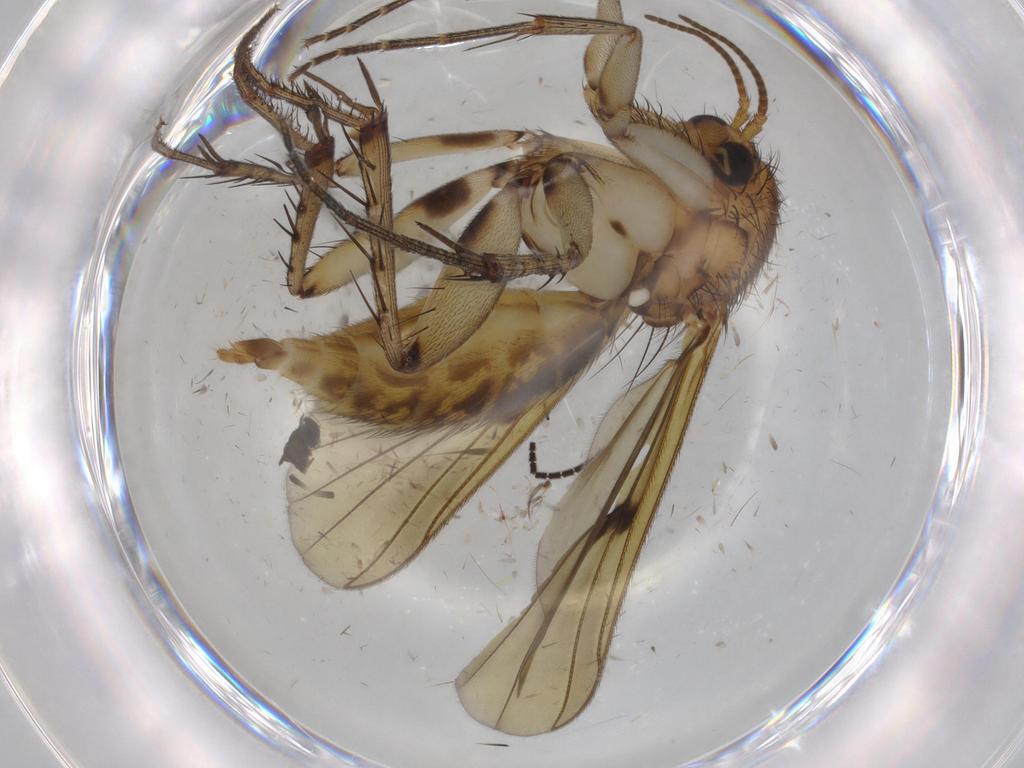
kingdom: Animalia
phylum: Arthropoda
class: Insecta
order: Diptera
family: Sciaridae
